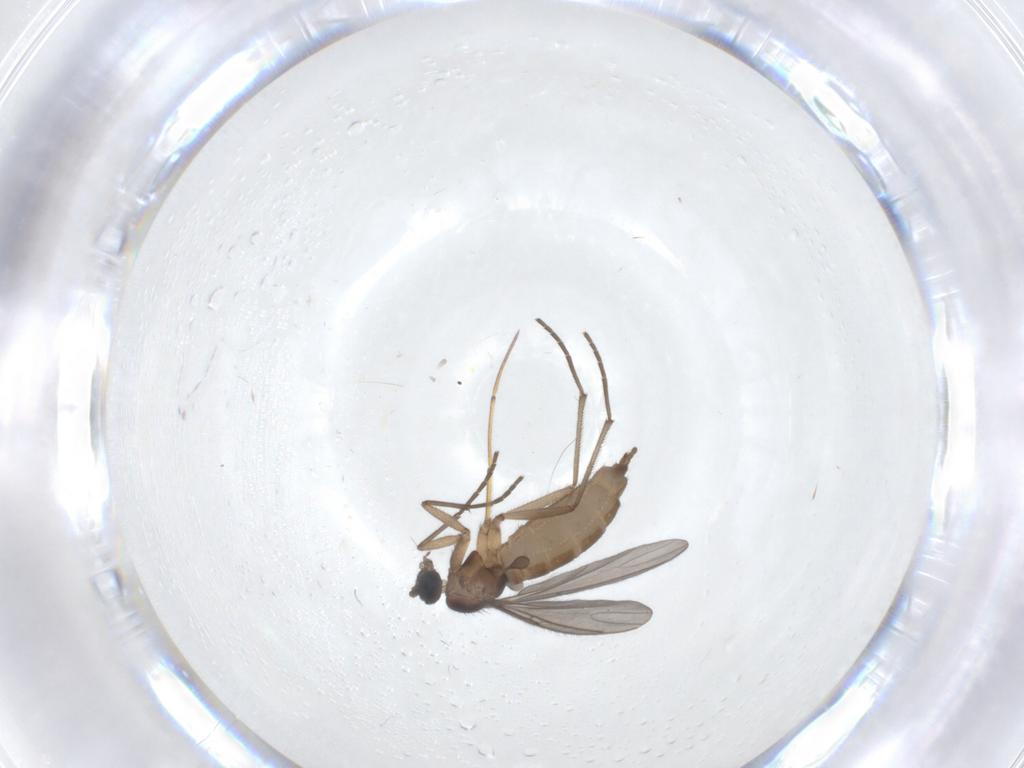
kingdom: Animalia
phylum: Arthropoda
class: Insecta
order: Diptera
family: Sciaridae
